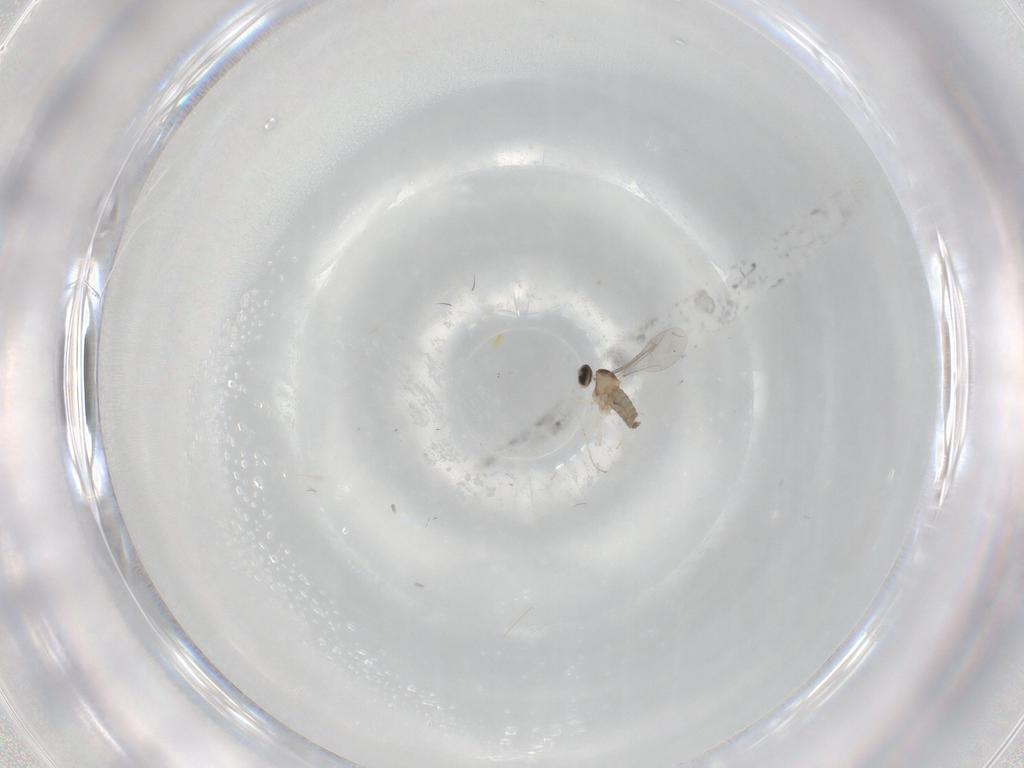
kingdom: Animalia
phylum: Arthropoda
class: Insecta
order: Diptera
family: Cecidomyiidae
